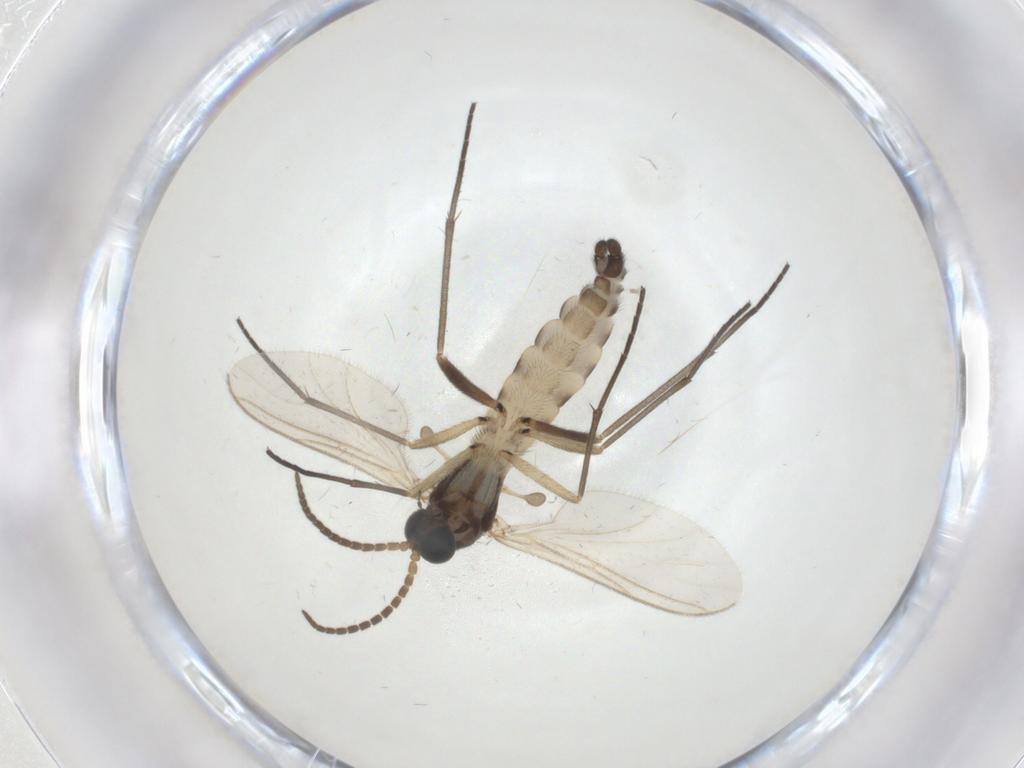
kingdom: Animalia
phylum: Arthropoda
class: Insecta
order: Diptera
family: Sciaridae
